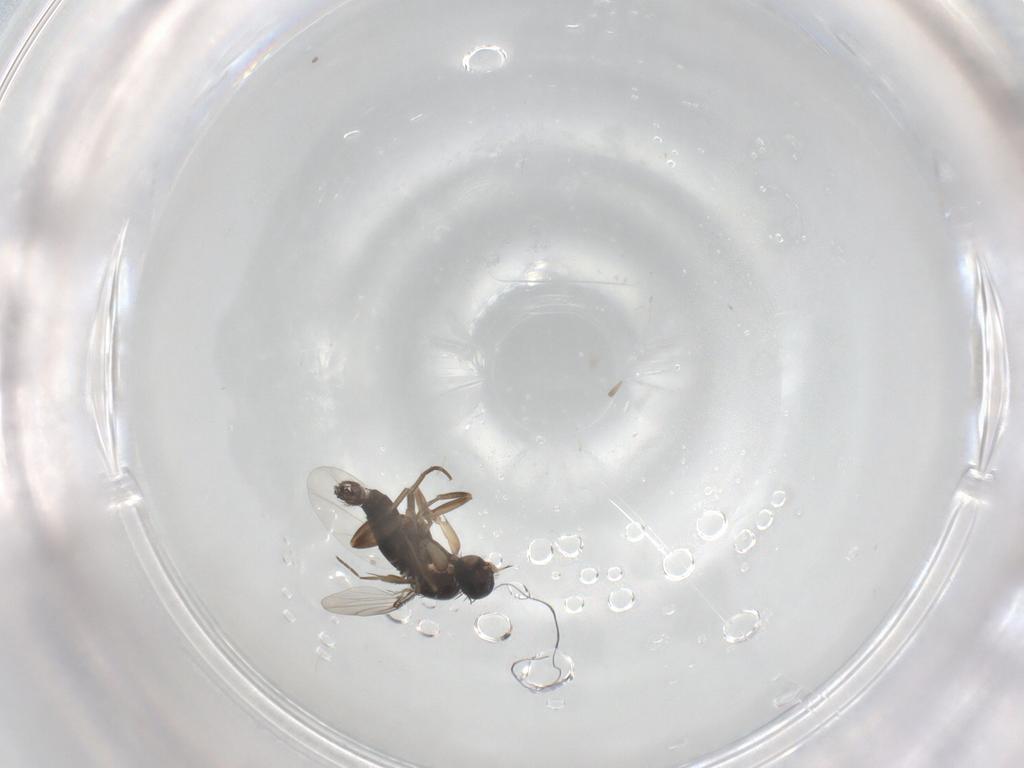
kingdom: Animalia
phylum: Arthropoda
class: Insecta
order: Diptera
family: Phoridae
